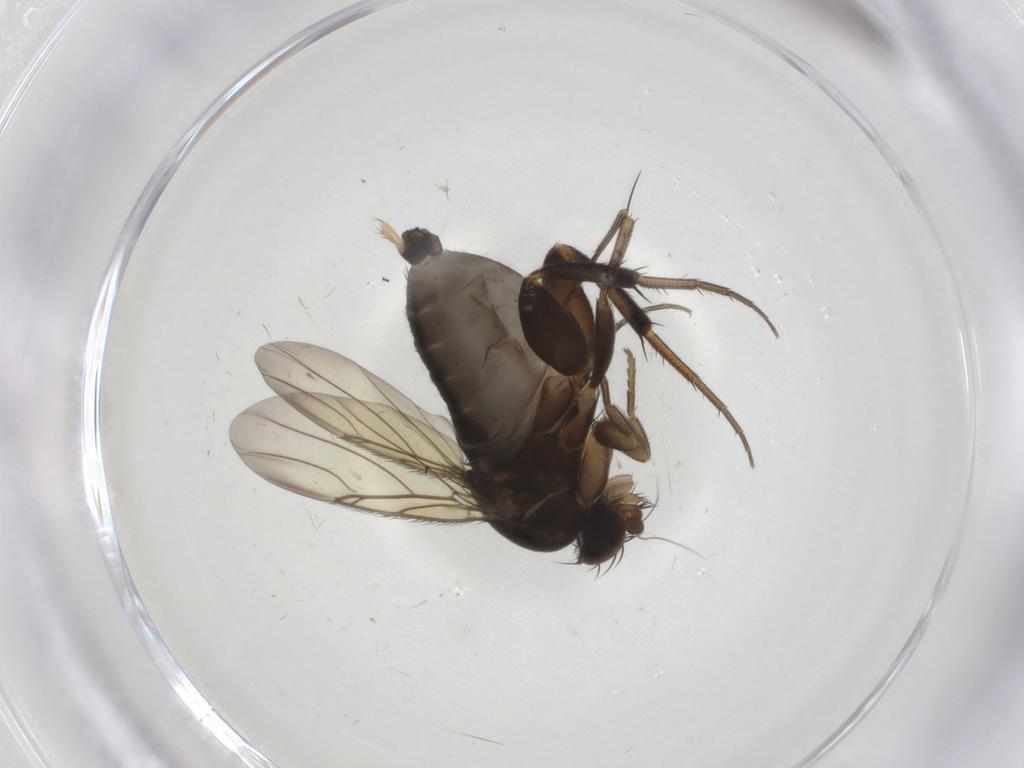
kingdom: Animalia
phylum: Arthropoda
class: Insecta
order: Diptera
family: Phoridae
